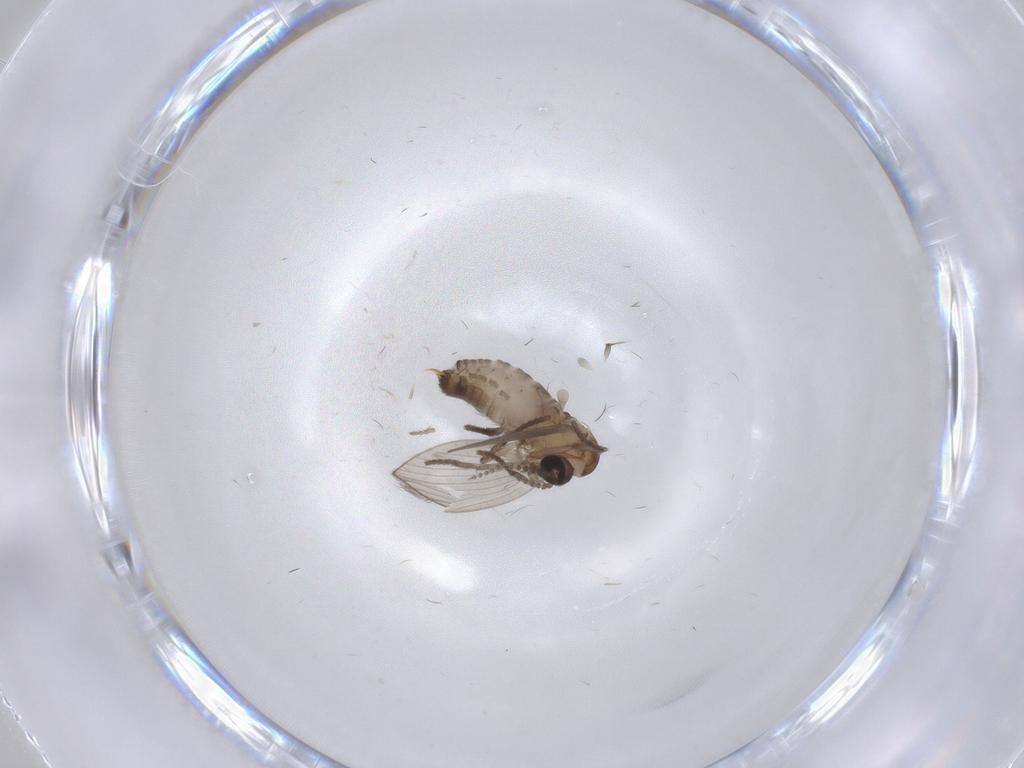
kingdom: Animalia
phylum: Arthropoda
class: Insecta
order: Diptera
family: Psychodidae
